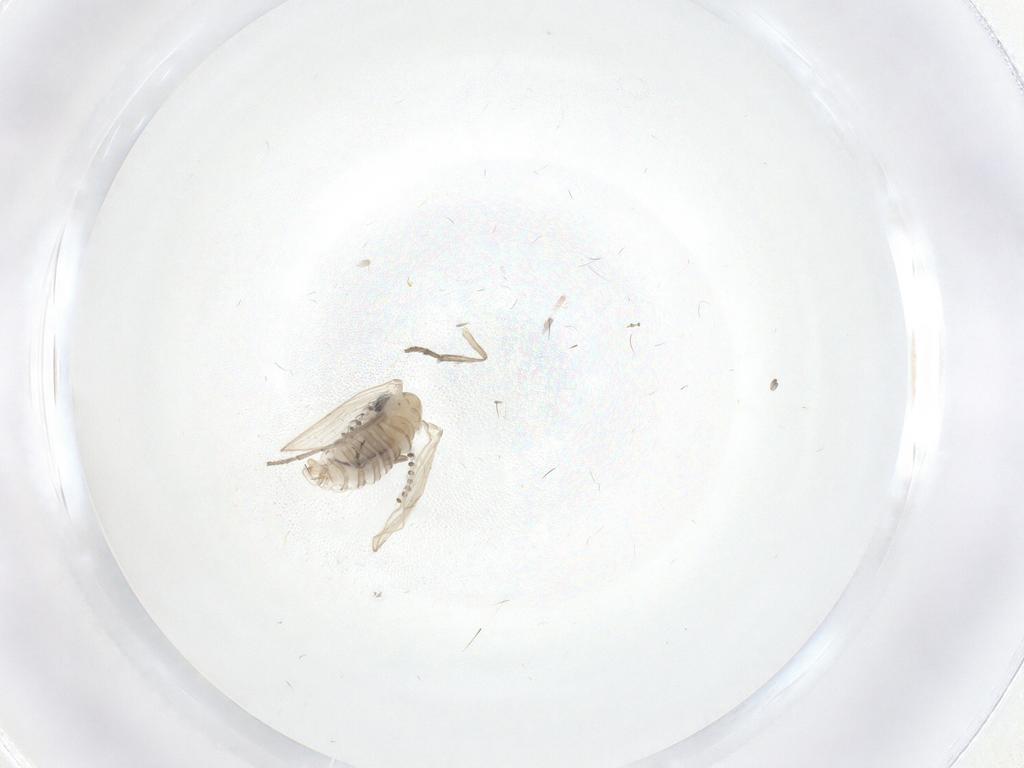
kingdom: Animalia
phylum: Arthropoda
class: Insecta
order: Diptera
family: Psychodidae
